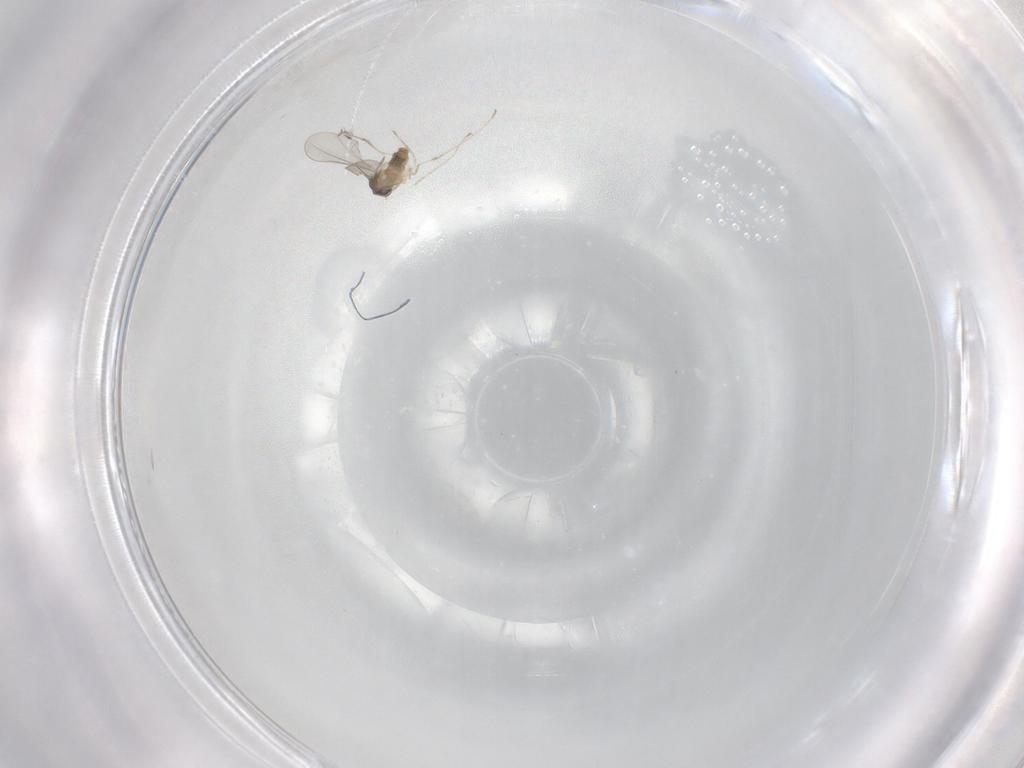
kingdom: Animalia
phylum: Arthropoda
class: Insecta
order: Diptera
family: Cecidomyiidae
